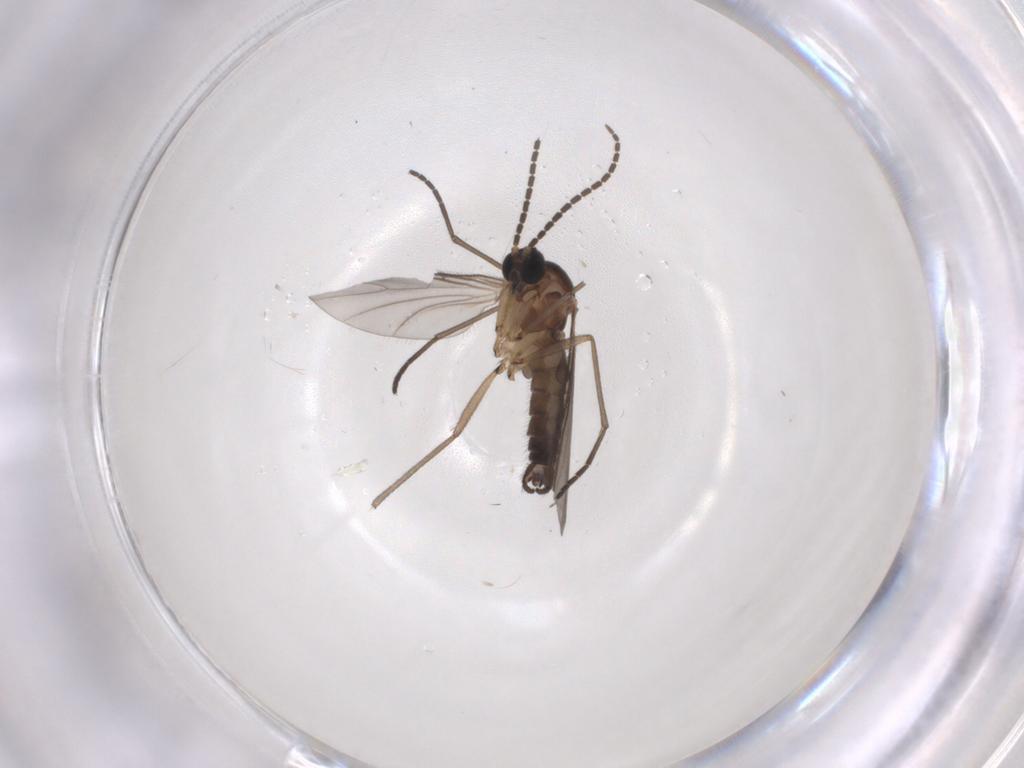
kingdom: Animalia
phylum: Arthropoda
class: Insecta
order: Diptera
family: Sciaridae
